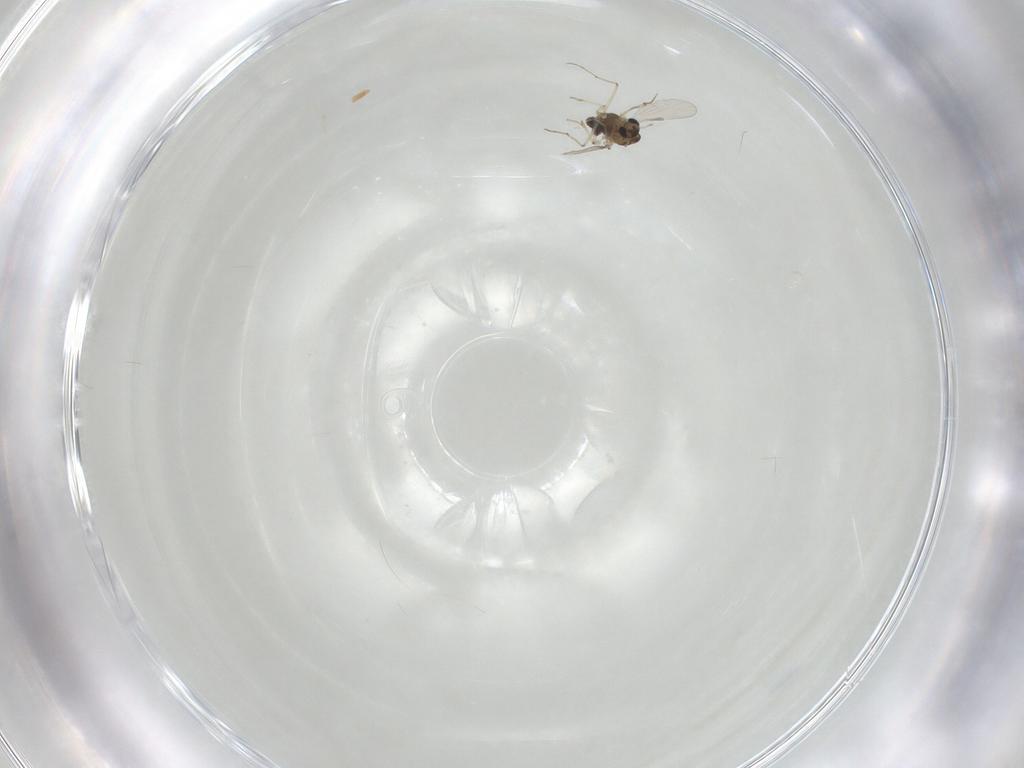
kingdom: Animalia
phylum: Arthropoda
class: Insecta
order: Diptera
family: Chironomidae
